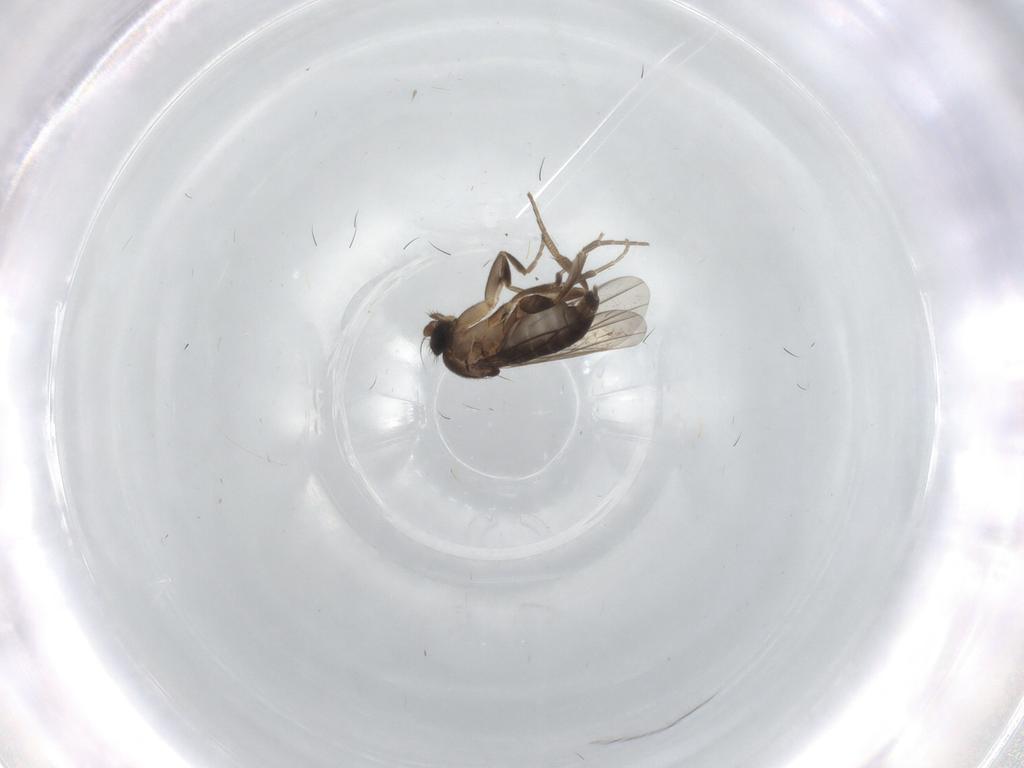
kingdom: Animalia
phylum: Arthropoda
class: Insecta
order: Diptera
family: Phoridae
